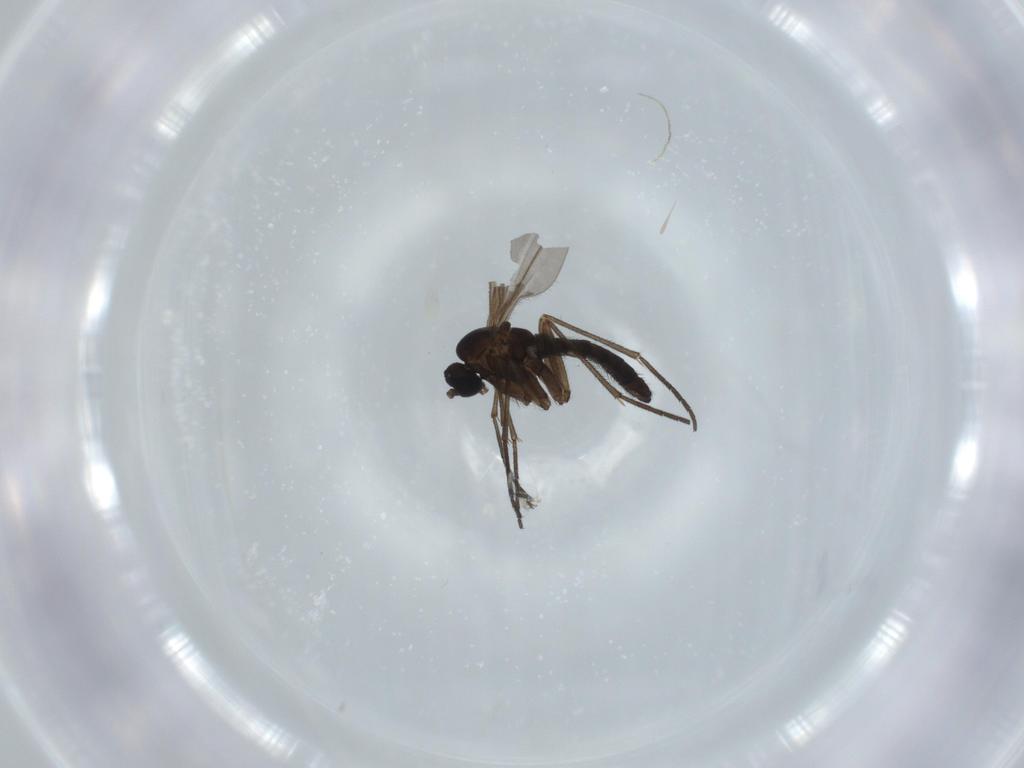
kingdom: Animalia
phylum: Arthropoda
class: Insecta
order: Diptera
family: Sciaridae
